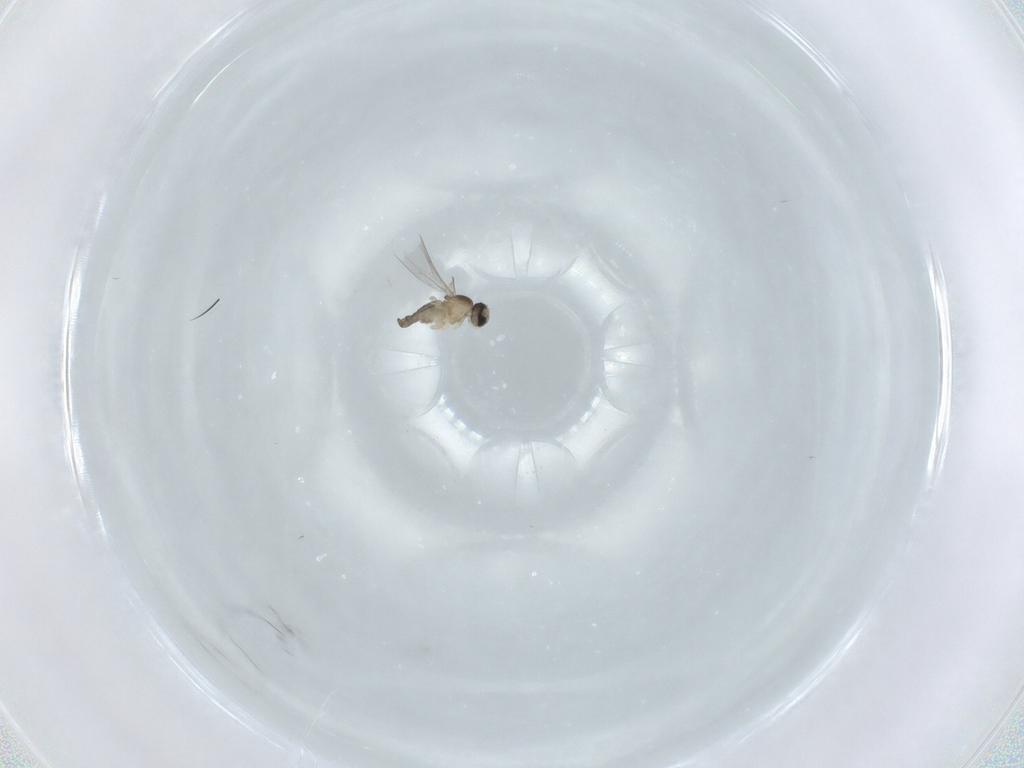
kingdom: Animalia
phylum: Arthropoda
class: Insecta
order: Diptera
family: Chloropidae
